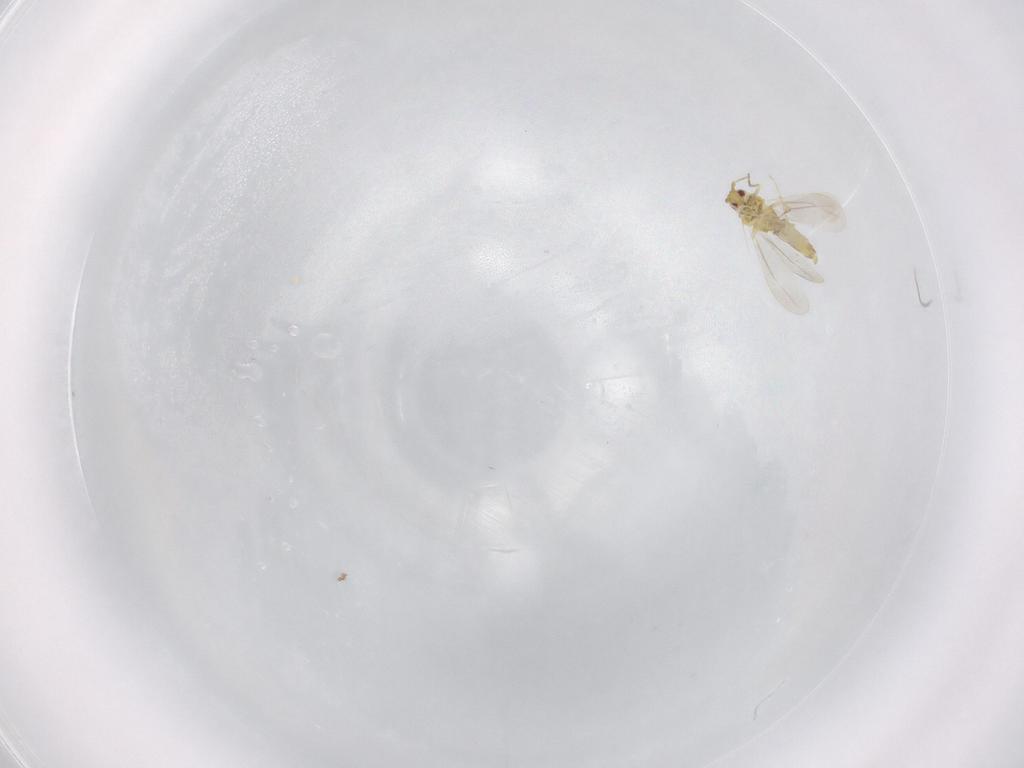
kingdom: Animalia
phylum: Arthropoda
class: Insecta
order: Hemiptera
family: Aleyrodidae
